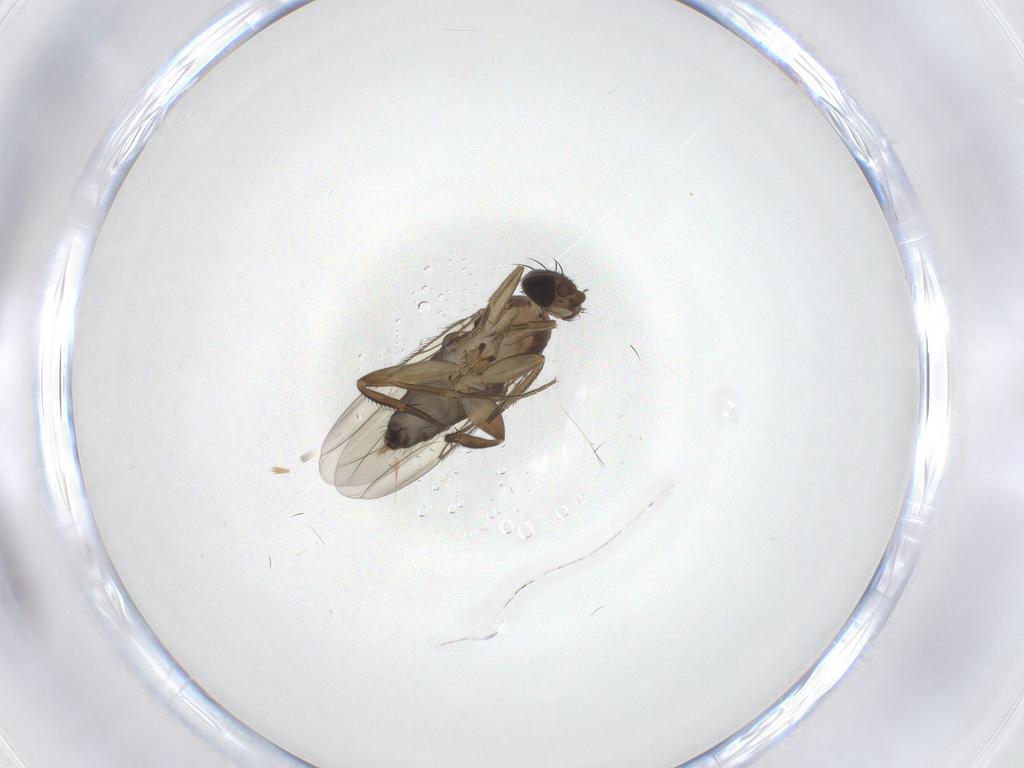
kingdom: Animalia
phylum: Arthropoda
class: Insecta
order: Diptera
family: Phoridae
